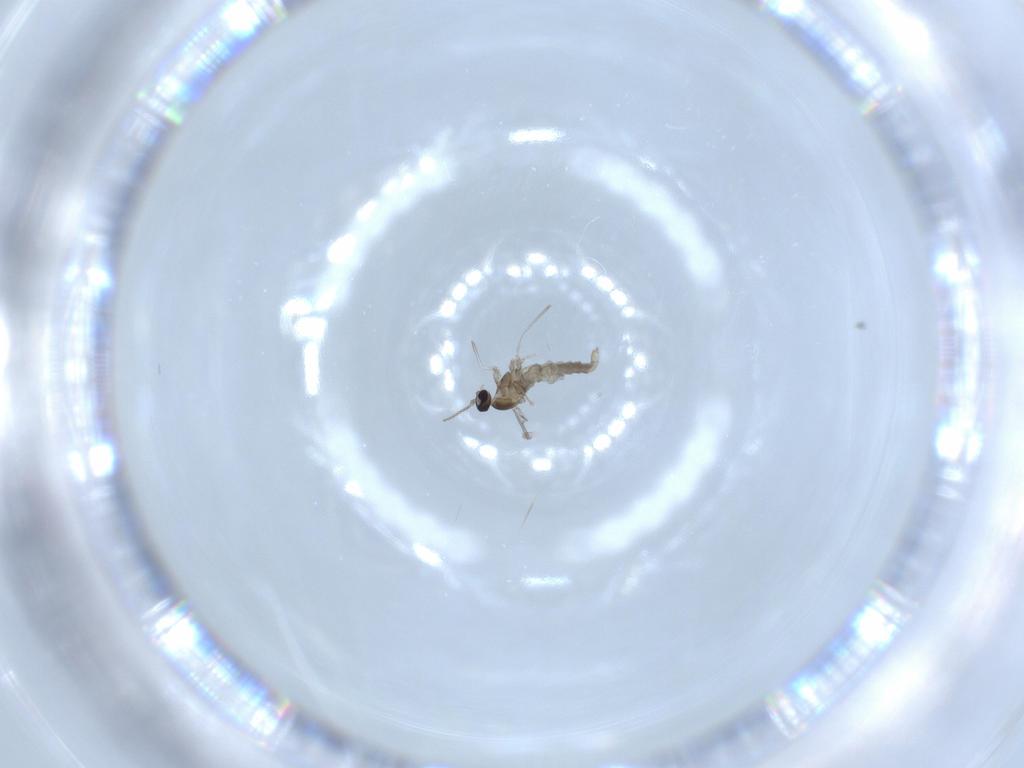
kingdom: Animalia
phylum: Arthropoda
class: Insecta
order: Diptera
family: Cecidomyiidae
